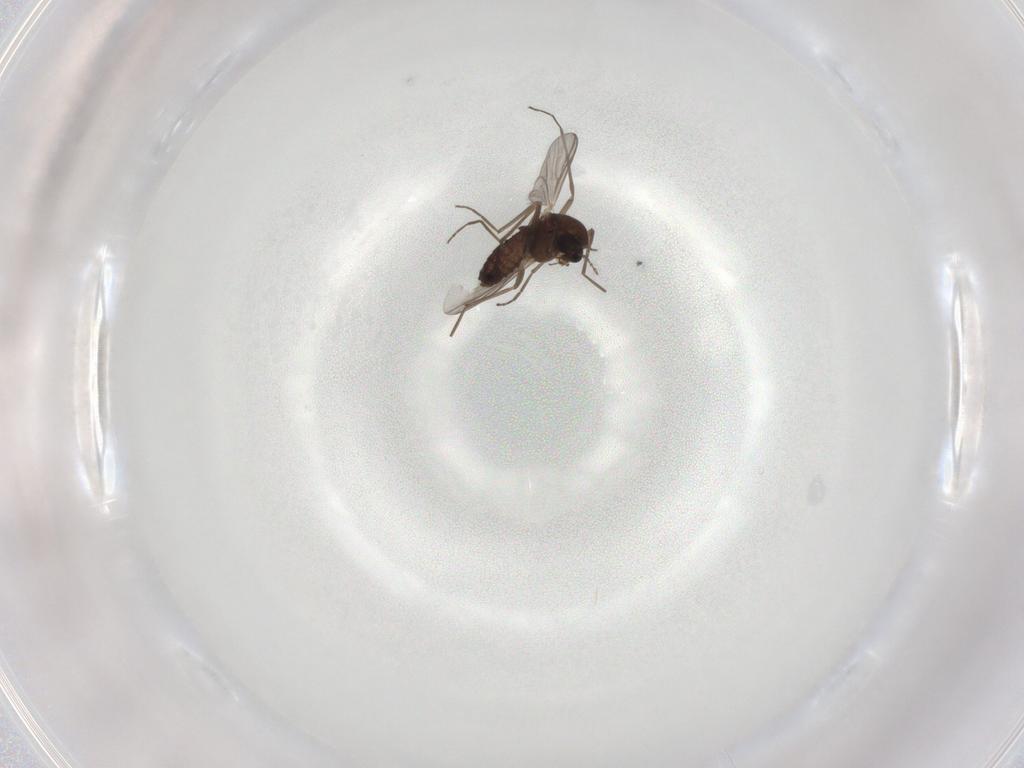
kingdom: Animalia
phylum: Arthropoda
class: Insecta
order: Diptera
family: Chironomidae
